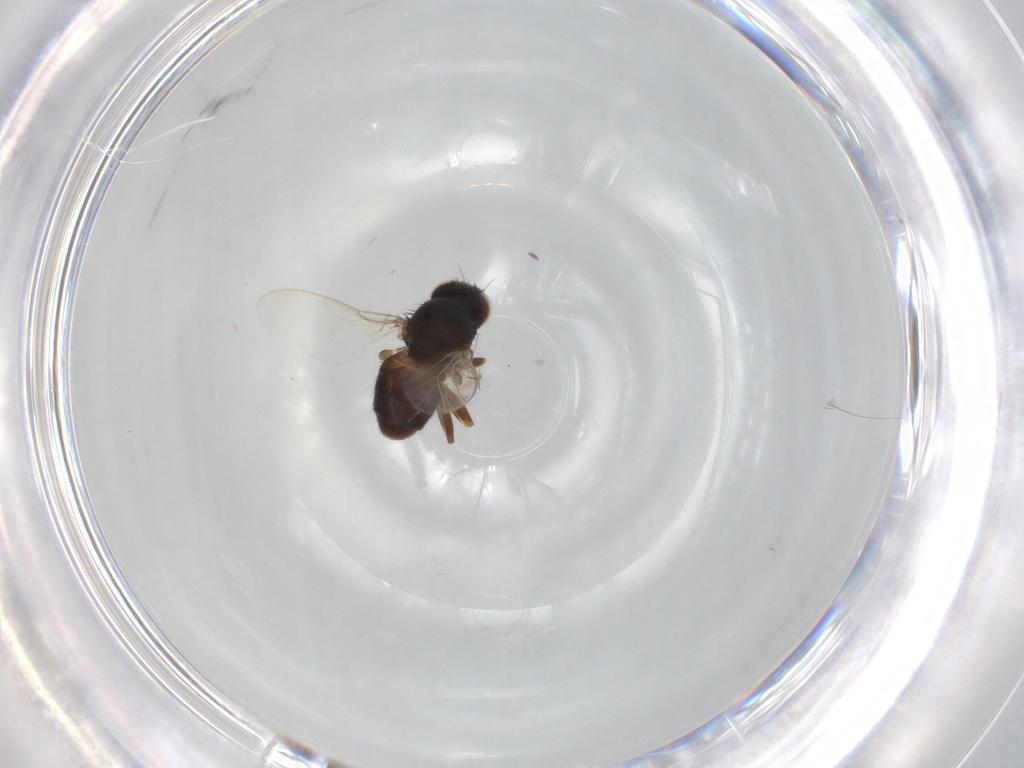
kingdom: Animalia
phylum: Arthropoda
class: Insecta
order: Diptera
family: Chloropidae
